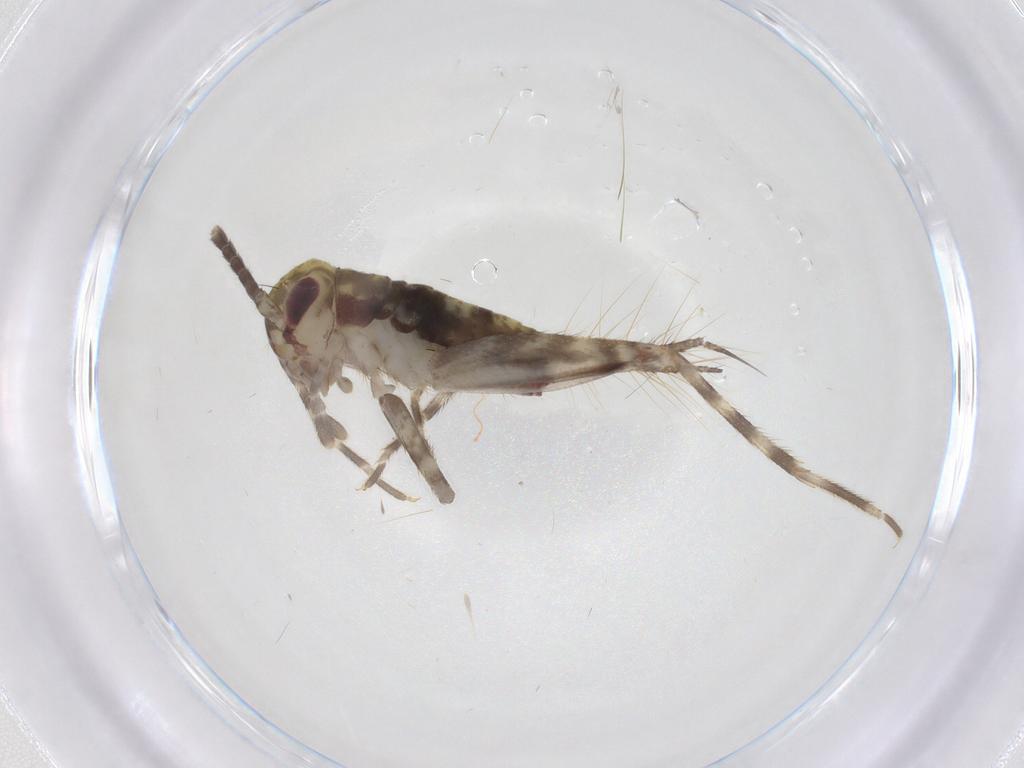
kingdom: Animalia
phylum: Arthropoda
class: Insecta
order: Orthoptera
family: Gryllidae
